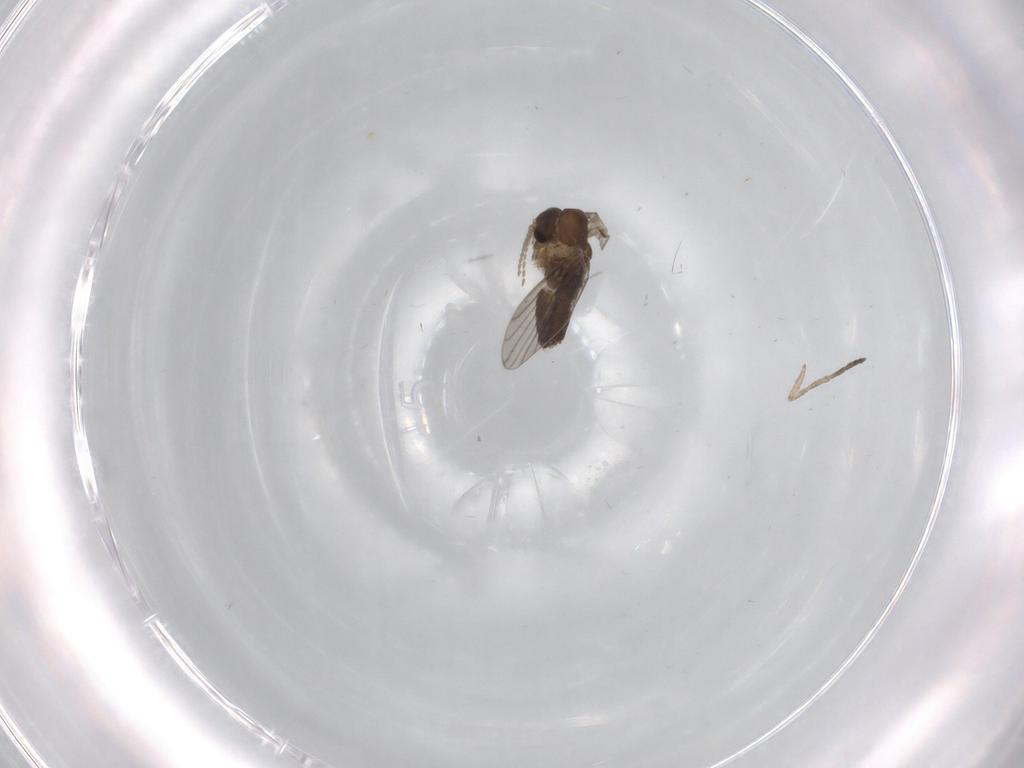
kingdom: Animalia
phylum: Arthropoda
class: Insecta
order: Diptera
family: Psychodidae
